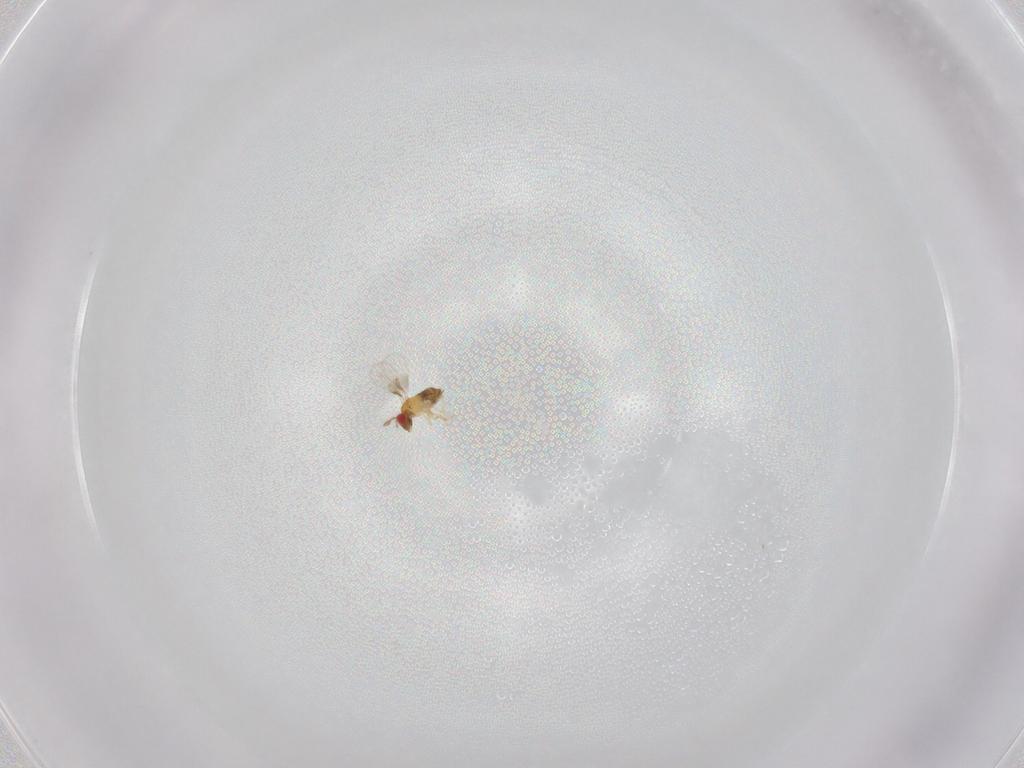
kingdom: Animalia
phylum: Arthropoda
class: Insecta
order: Hymenoptera
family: Trichogrammatidae
